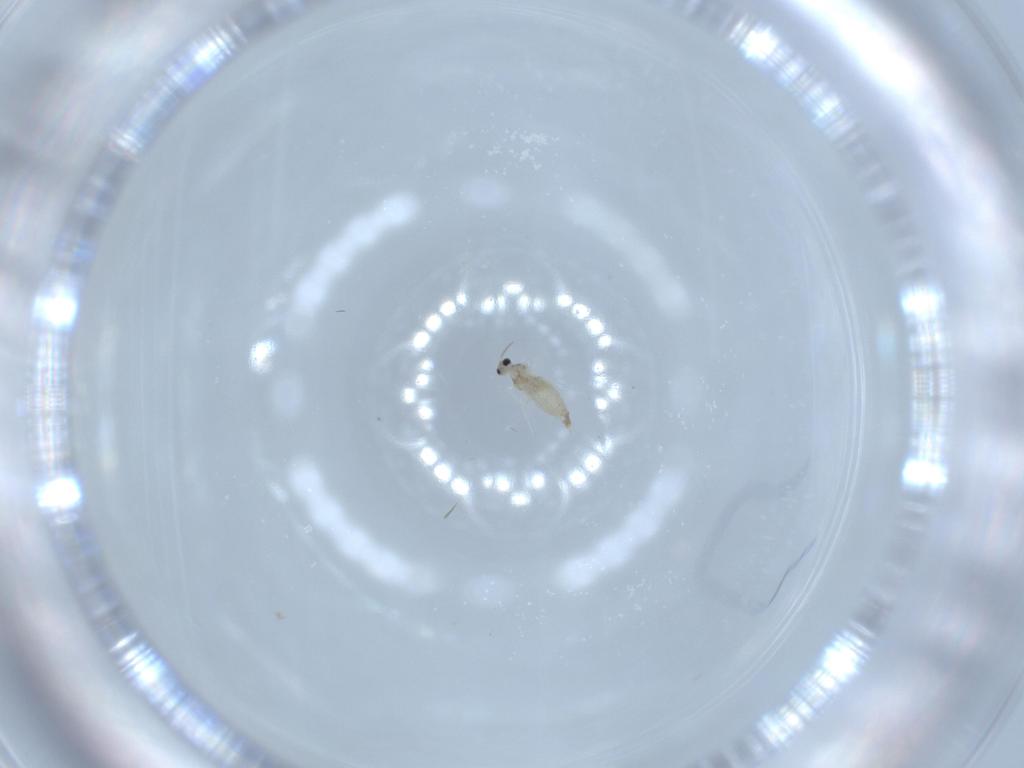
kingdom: Animalia
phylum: Arthropoda
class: Insecta
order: Diptera
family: Sciaridae
